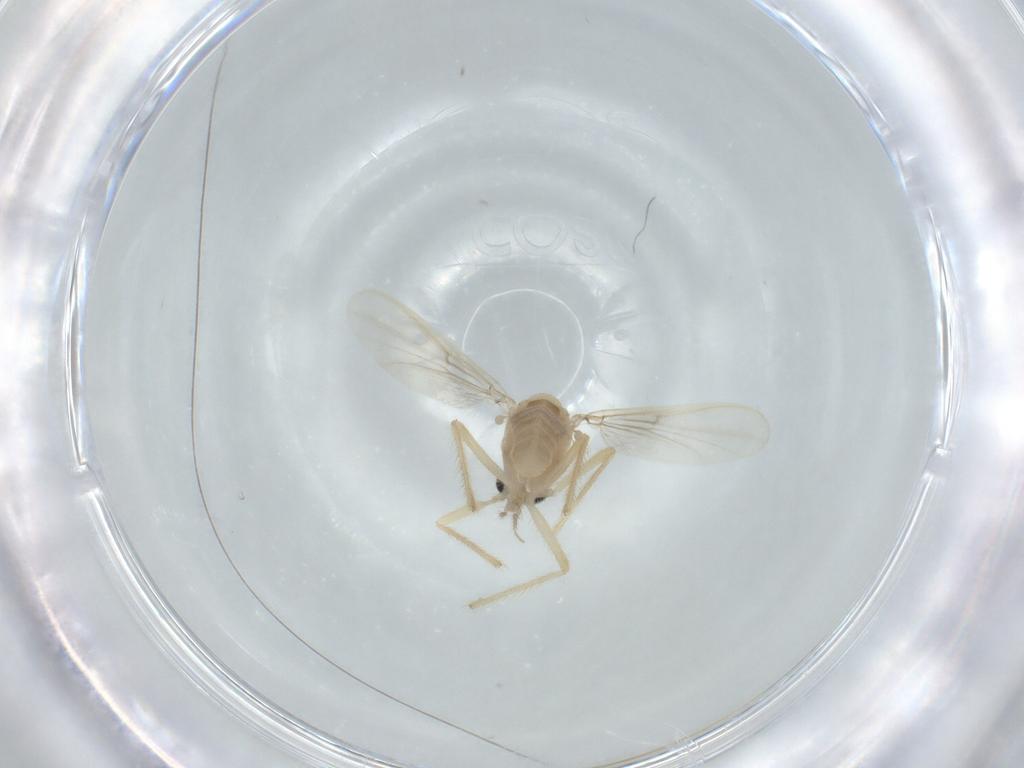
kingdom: Animalia
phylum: Arthropoda
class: Insecta
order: Diptera
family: Chironomidae
